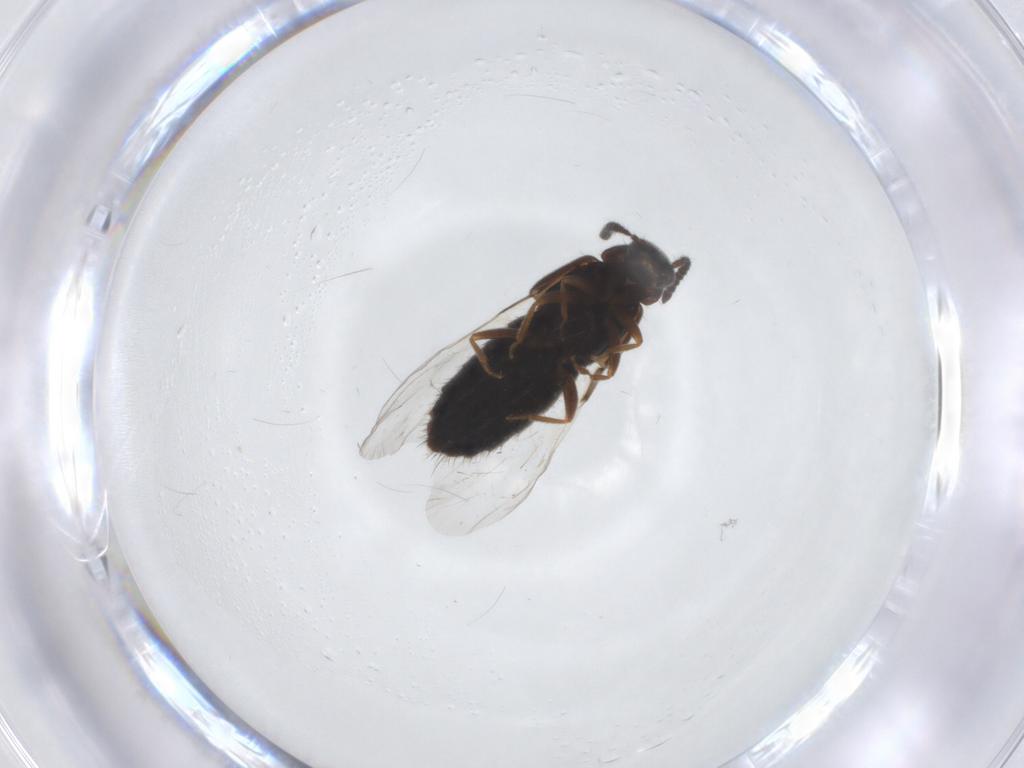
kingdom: Animalia
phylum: Arthropoda
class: Insecta
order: Diptera
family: Sciaridae
